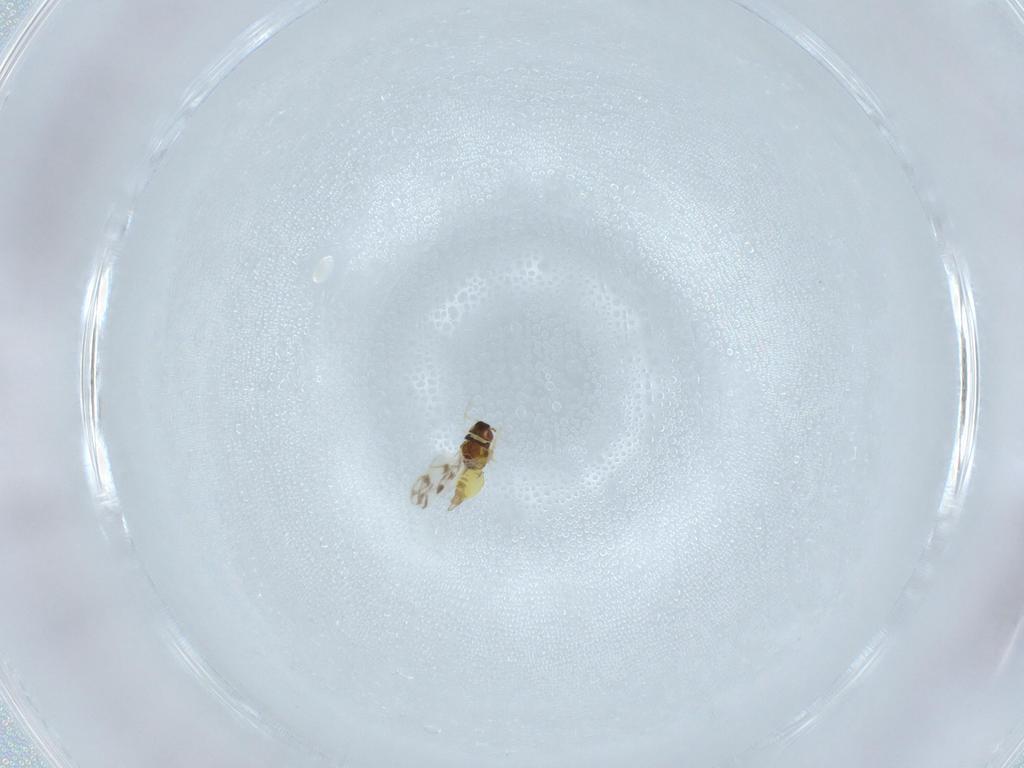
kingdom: Animalia
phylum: Arthropoda
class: Insecta
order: Hemiptera
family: Aleyrodidae
